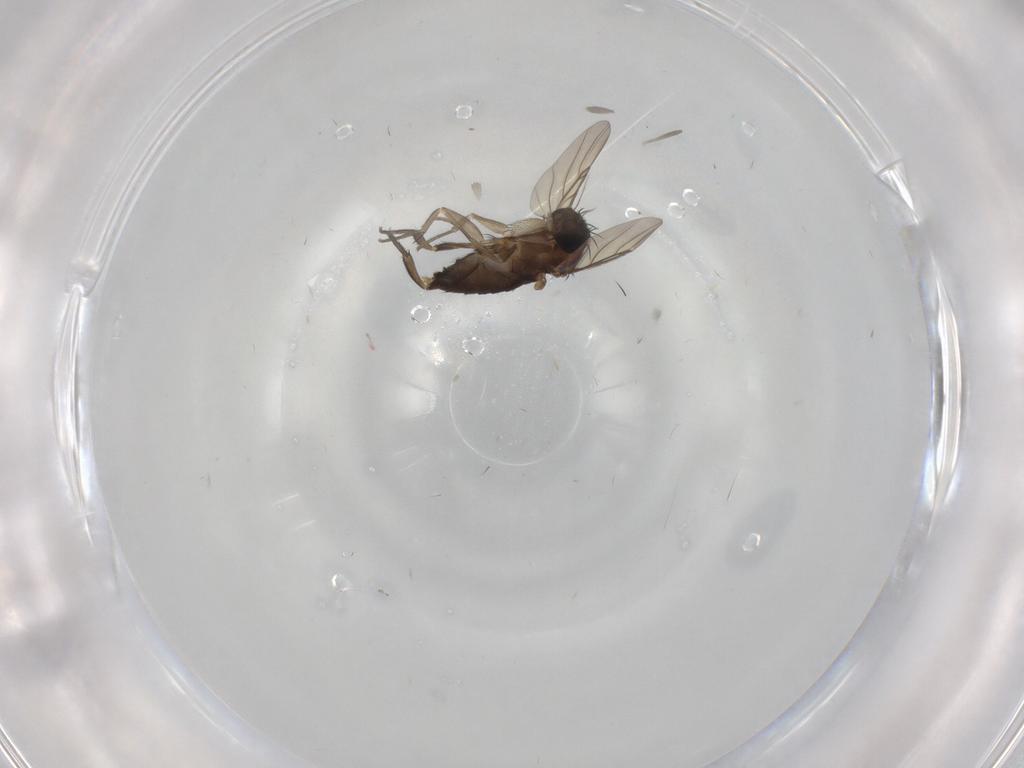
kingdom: Animalia
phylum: Arthropoda
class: Insecta
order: Diptera
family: Phoridae
